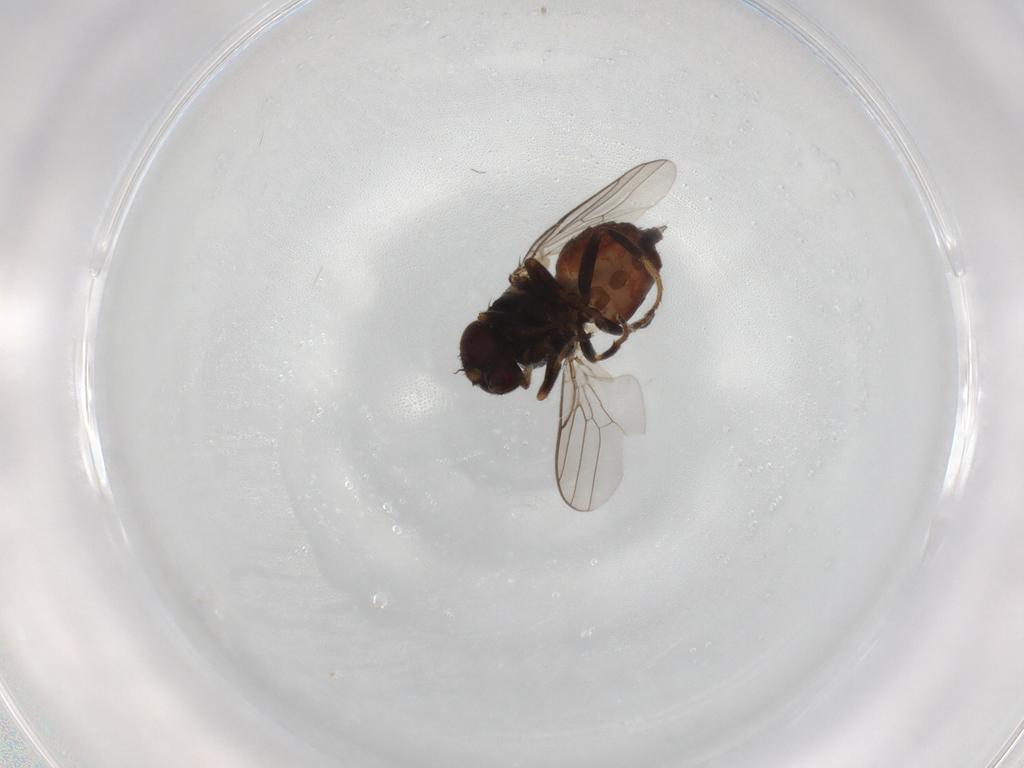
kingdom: Animalia
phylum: Arthropoda
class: Insecta
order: Diptera
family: Chloropidae
